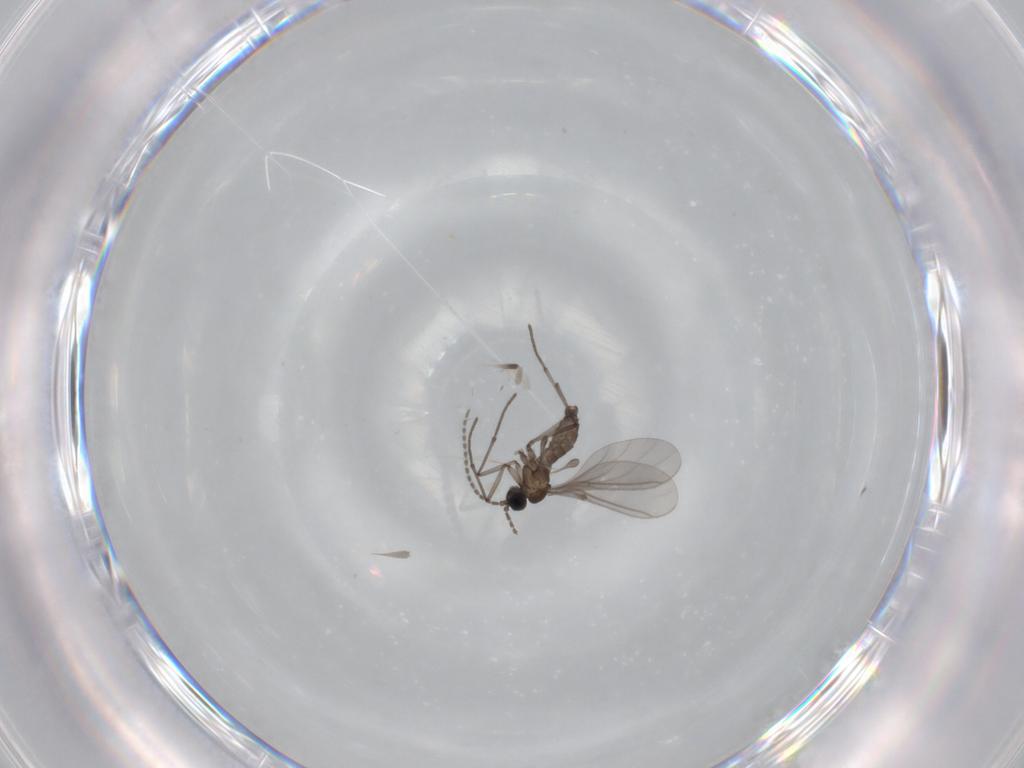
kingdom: Animalia
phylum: Arthropoda
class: Insecta
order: Diptera
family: Sciaridae
